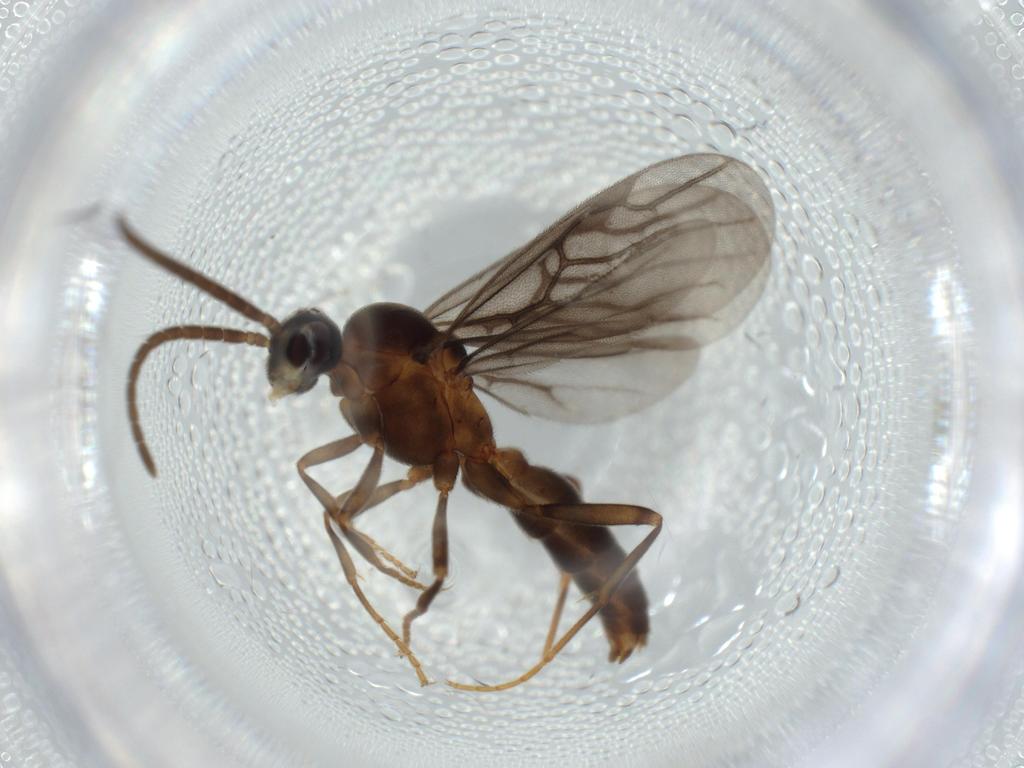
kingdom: Animalia
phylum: Arthropoda
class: Insecta
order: Hymenoptera
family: Formicidae
